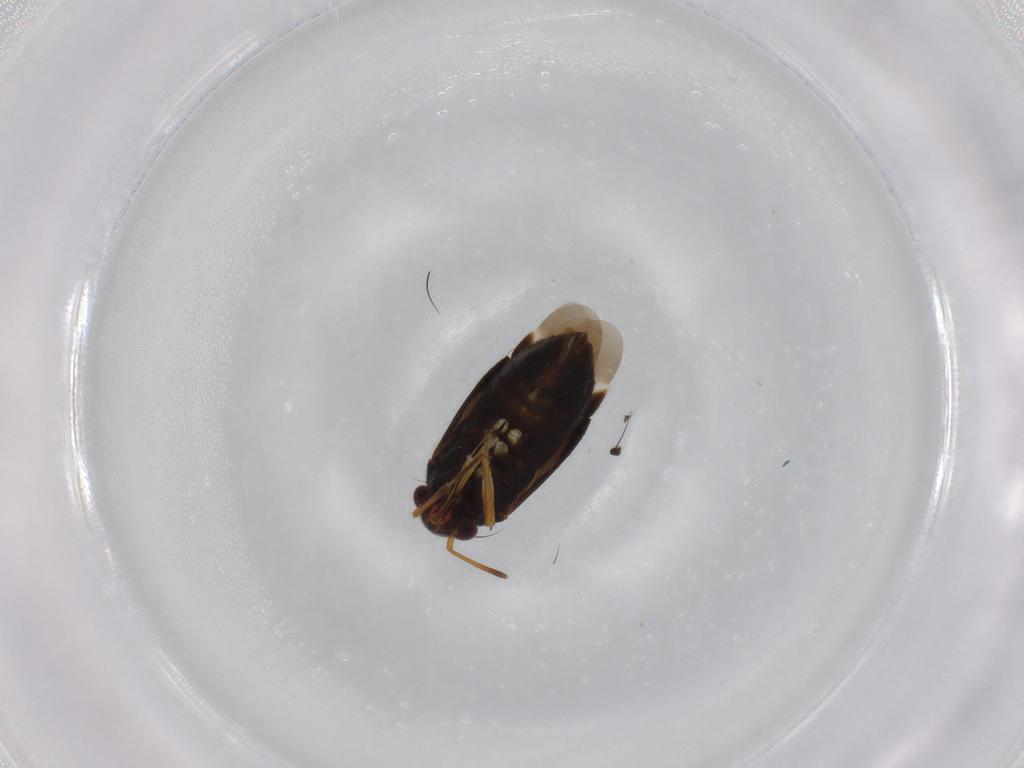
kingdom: Animalia
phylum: Arthropoda
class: Insecta
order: Hemiptera
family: Miridae
